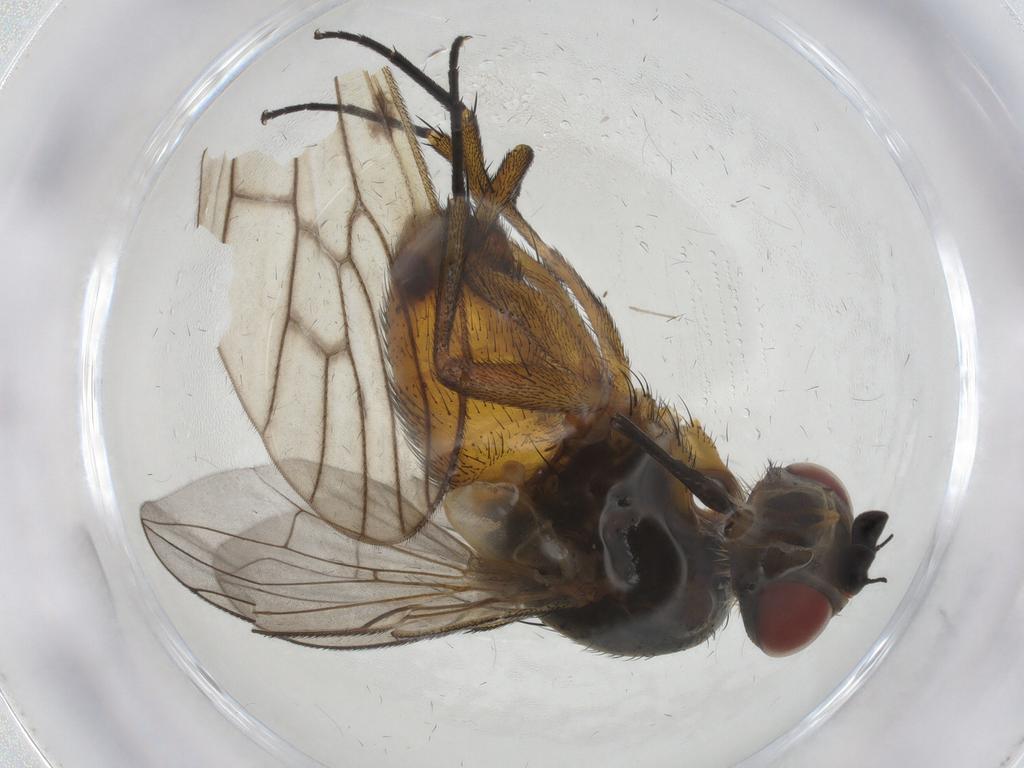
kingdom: Animalia
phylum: Arthropoda
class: Insecta
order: Diptera
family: Tachinidae
